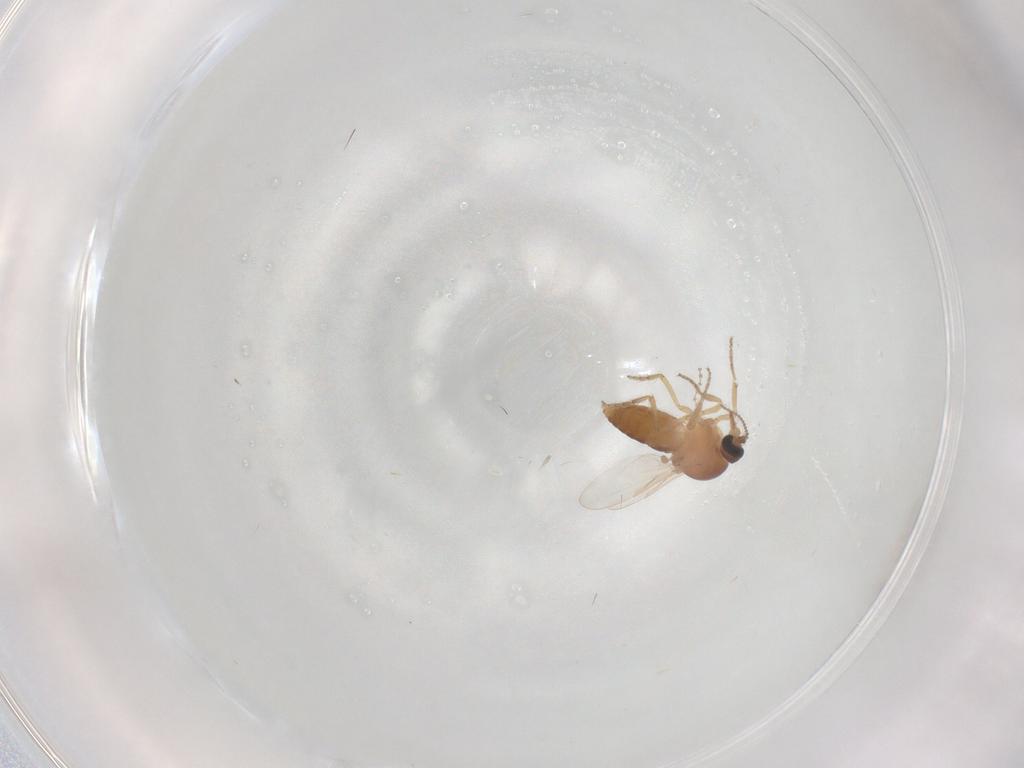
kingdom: Animalia
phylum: Arthropoda
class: Insecta
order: Diptera
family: Ceratopogonidae
